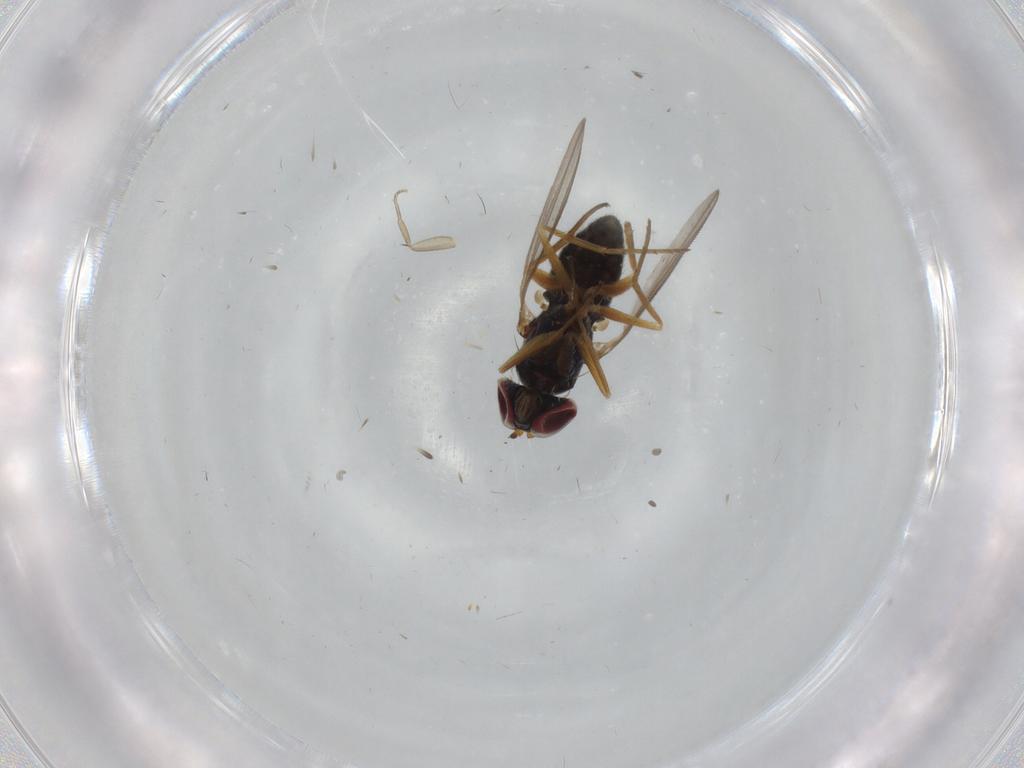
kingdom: Animalia
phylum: Arthropoda
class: Insecta
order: Diptera
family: Phoridae
